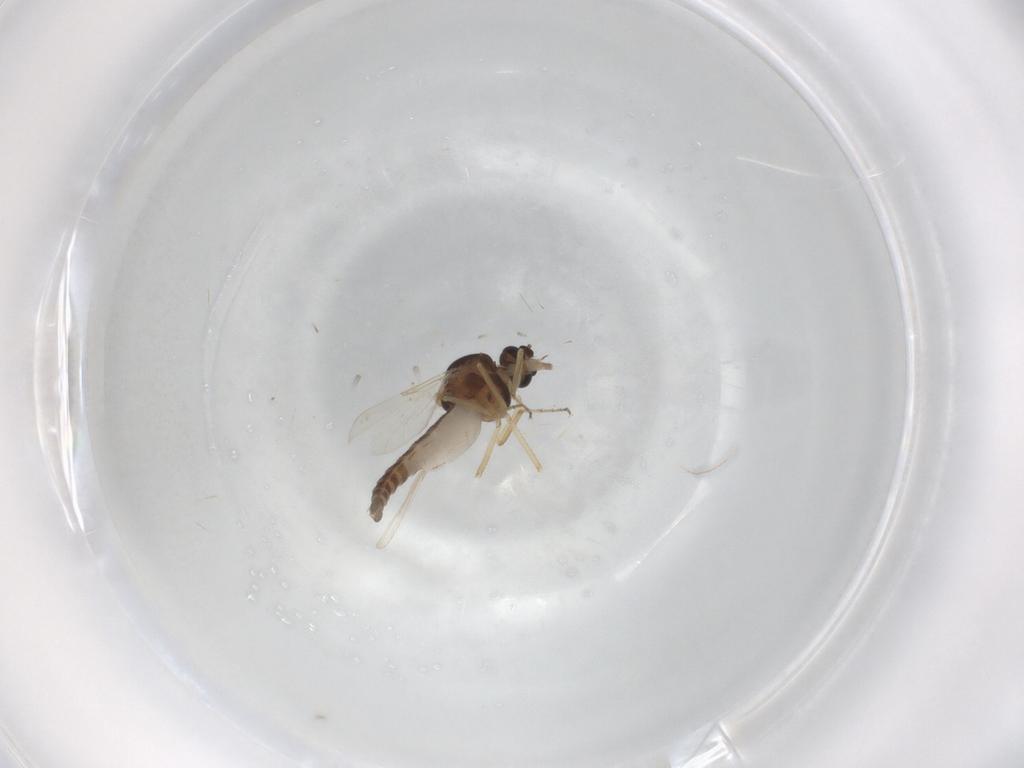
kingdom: Animalia
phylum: Arthropoda
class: Insecta
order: Diptera
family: Ceratopogonidae
